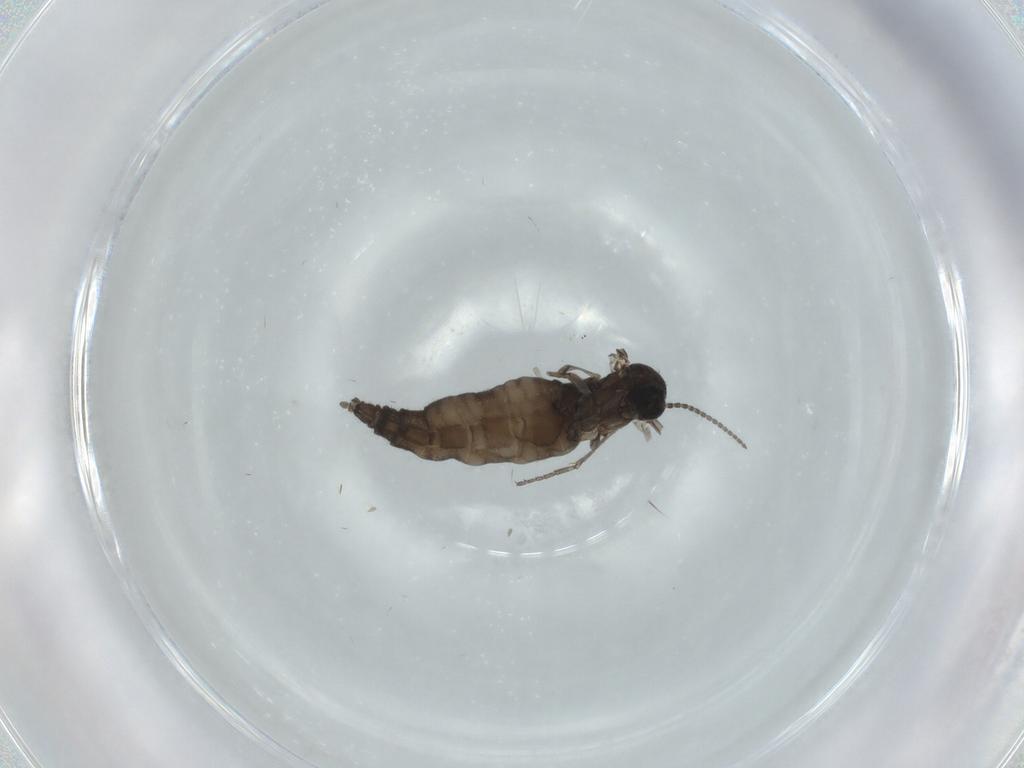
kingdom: Animalia
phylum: Arthropoda
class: Insecta
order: Diptera
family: Sciaridae
